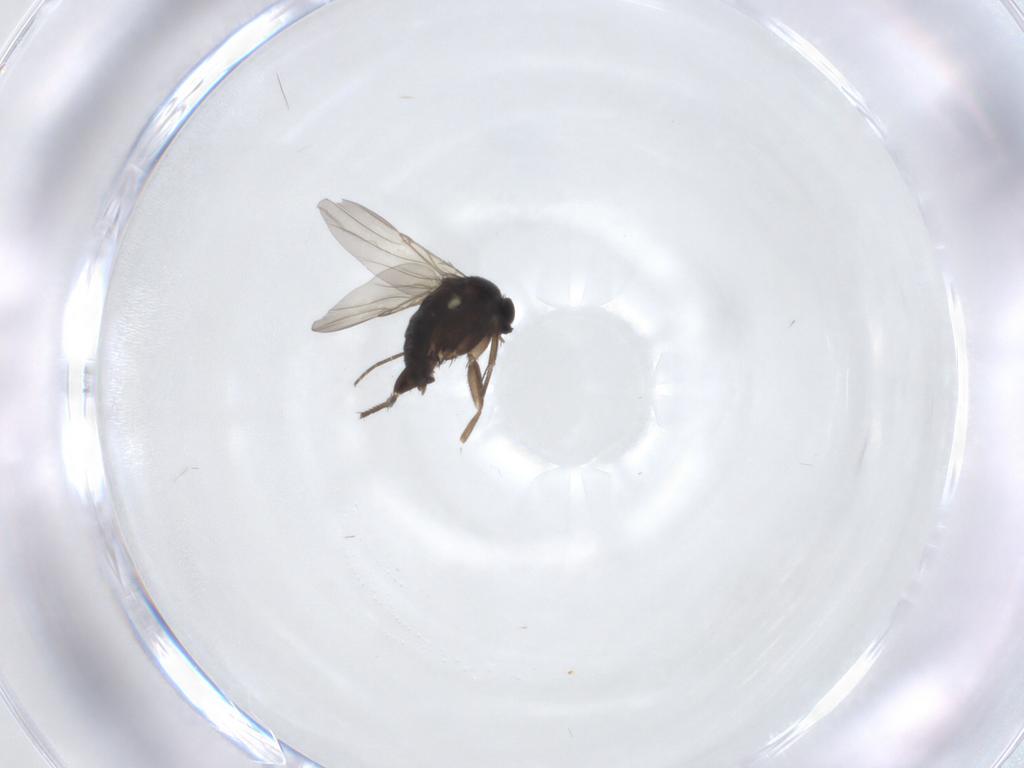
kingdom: Animalia
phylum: Arthropoda
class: Insecta
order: Diptera
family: Phoridae
